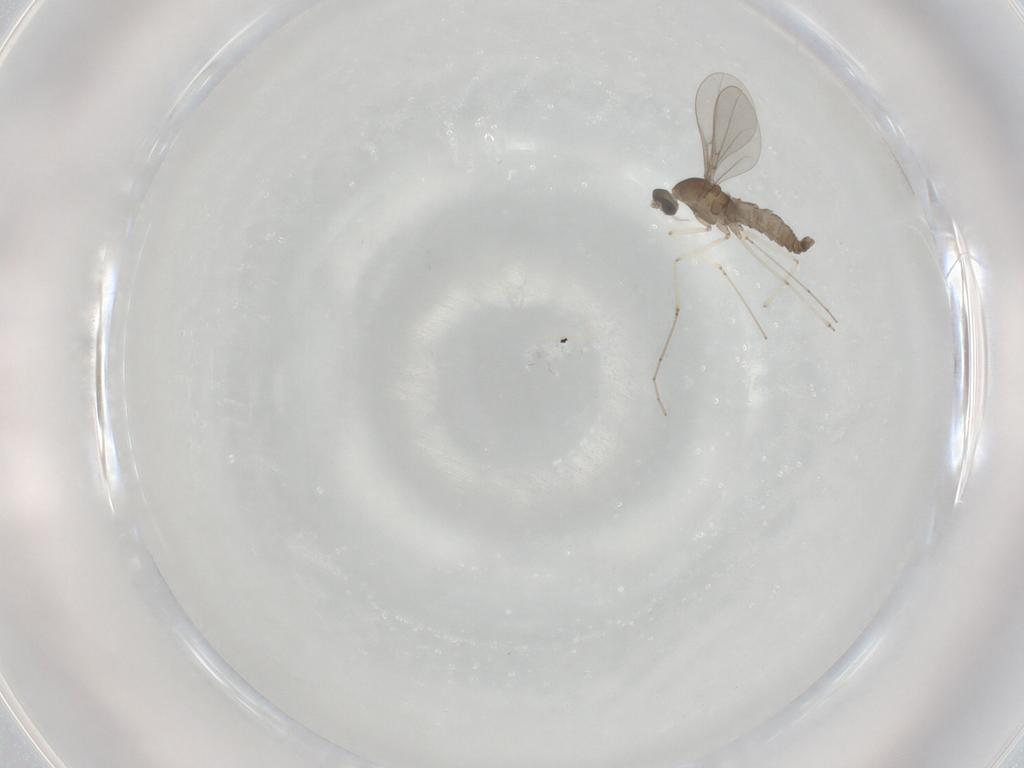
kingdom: Animalia
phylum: Arthropoda
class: Insecta
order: Diptera
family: Cecidomyiidae
